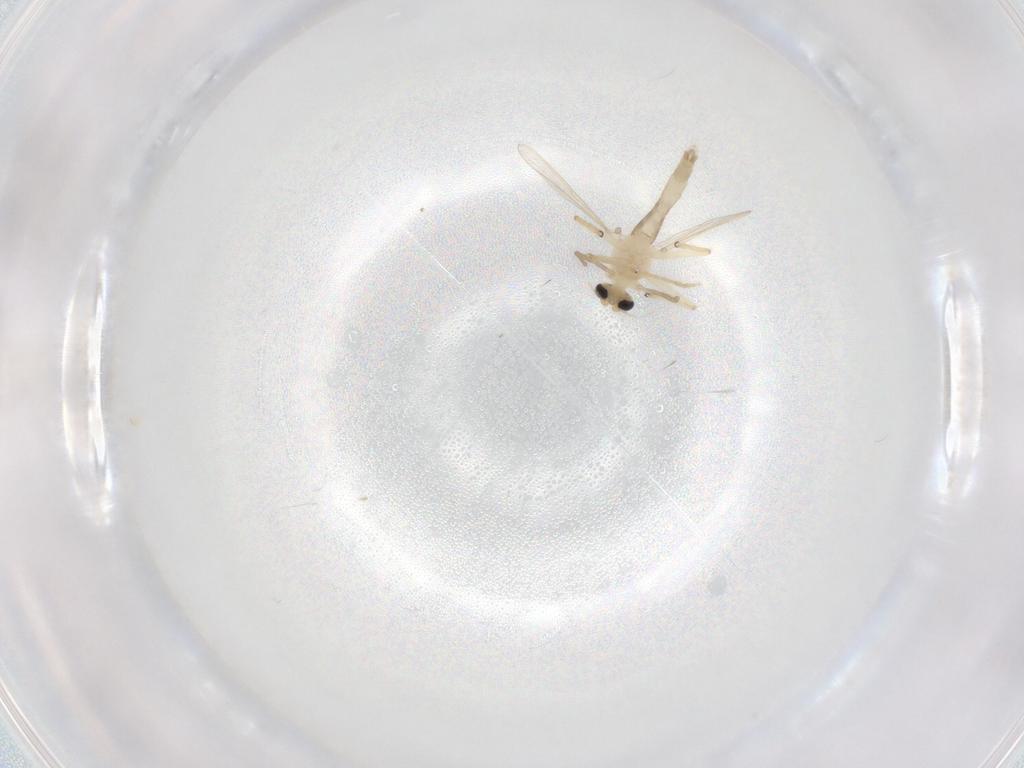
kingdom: Animalia
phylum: Arthropoda
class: Insecta
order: Diptera
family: Chironomidae
